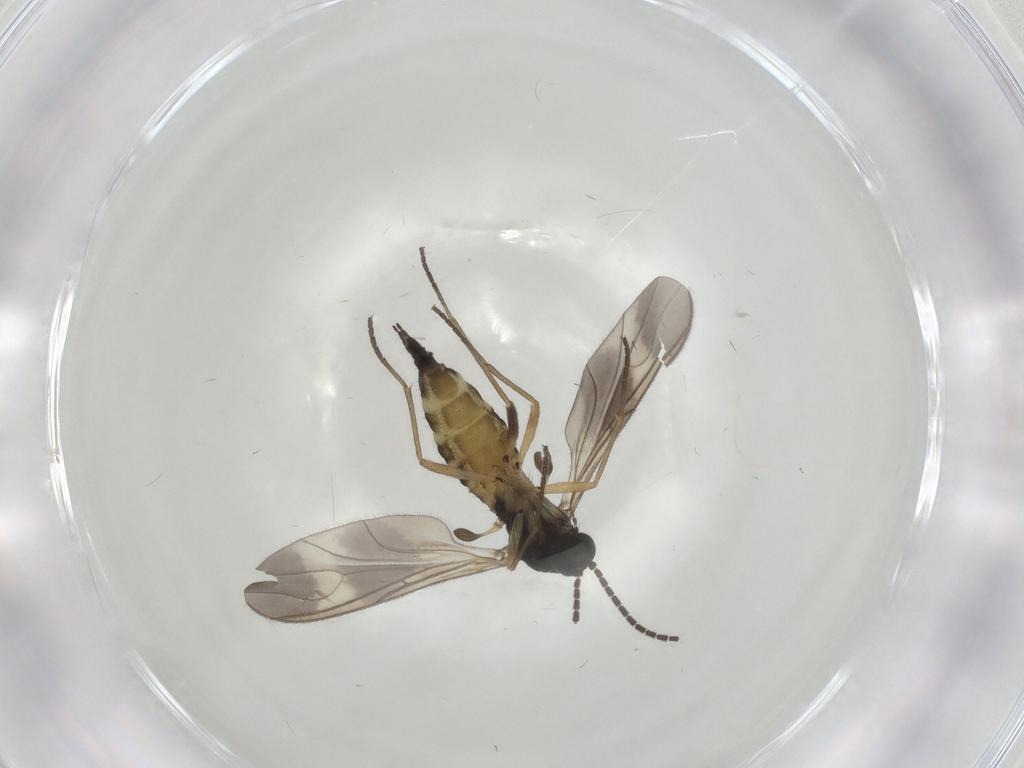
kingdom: Animalia
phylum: Arthropoda
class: Insecta
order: Diptera
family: Sciaridae
